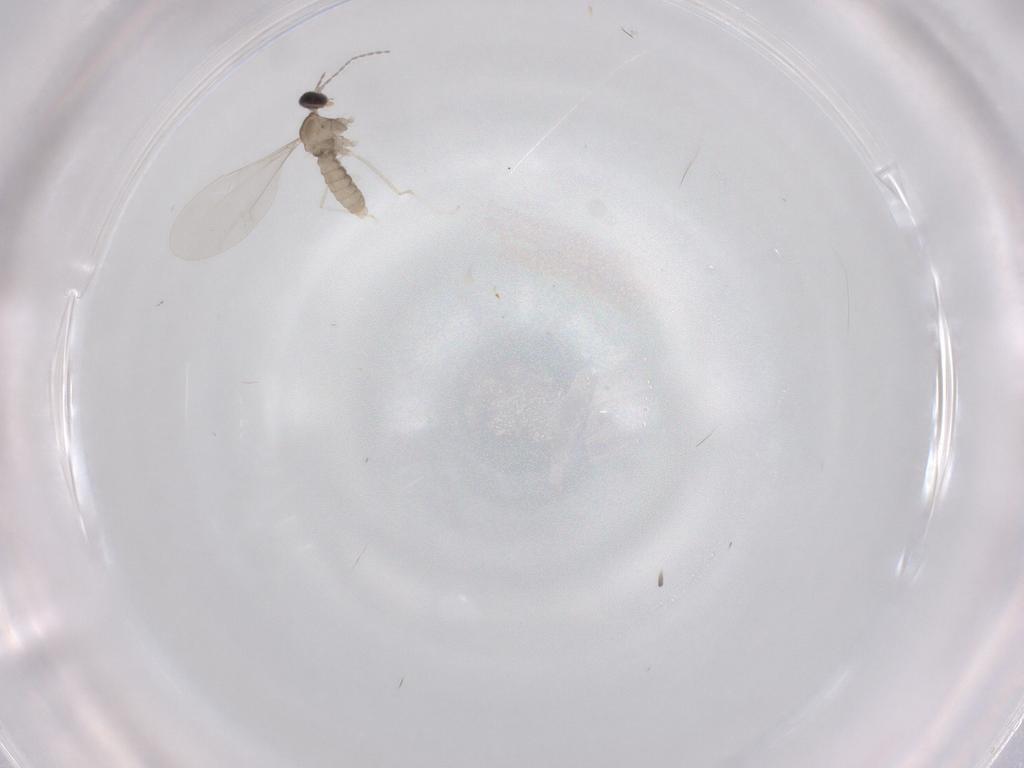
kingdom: Animalia
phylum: Arthropoda
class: Insecta
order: Diptera
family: Cecidomyiidae
